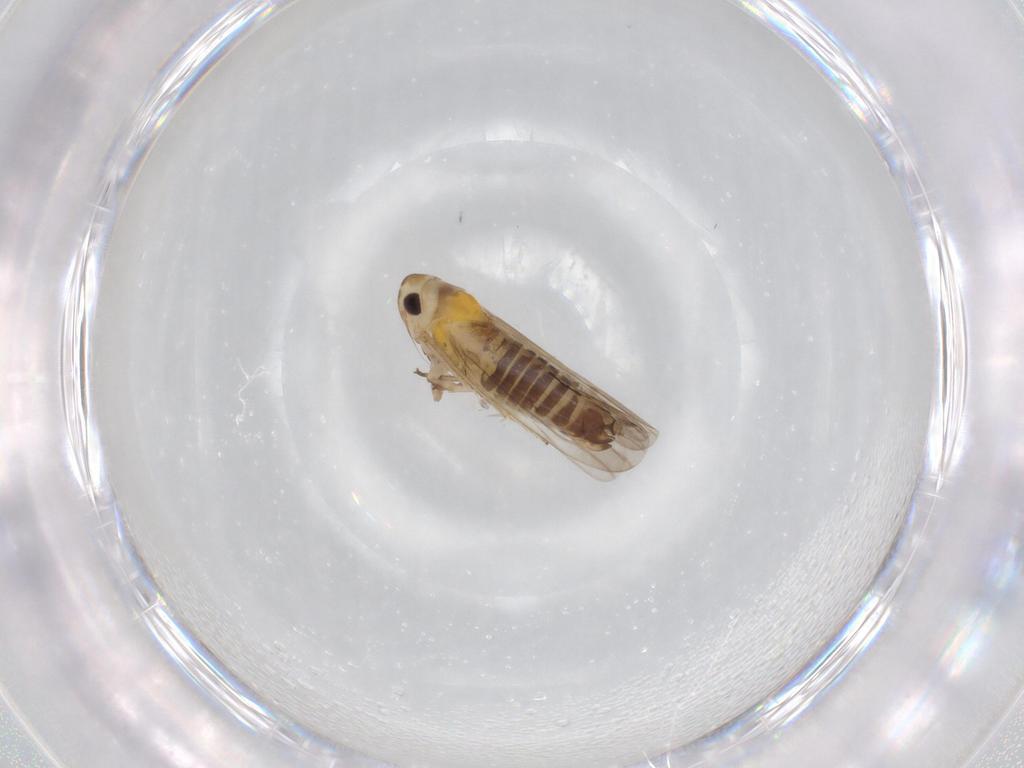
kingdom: Animalia
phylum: Arthropoda
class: Insecta
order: Hemiptera
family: Cicadellidae
